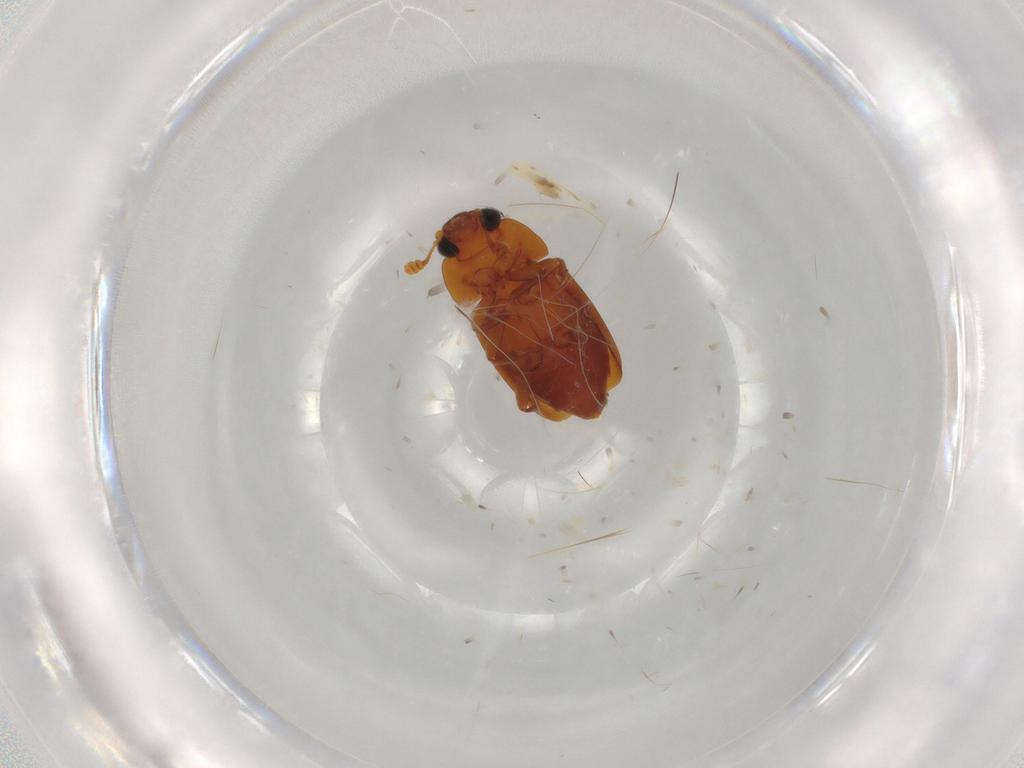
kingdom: Animalia
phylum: Arthropoda
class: Insecta
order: Coleoptera
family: Nitidulidae
